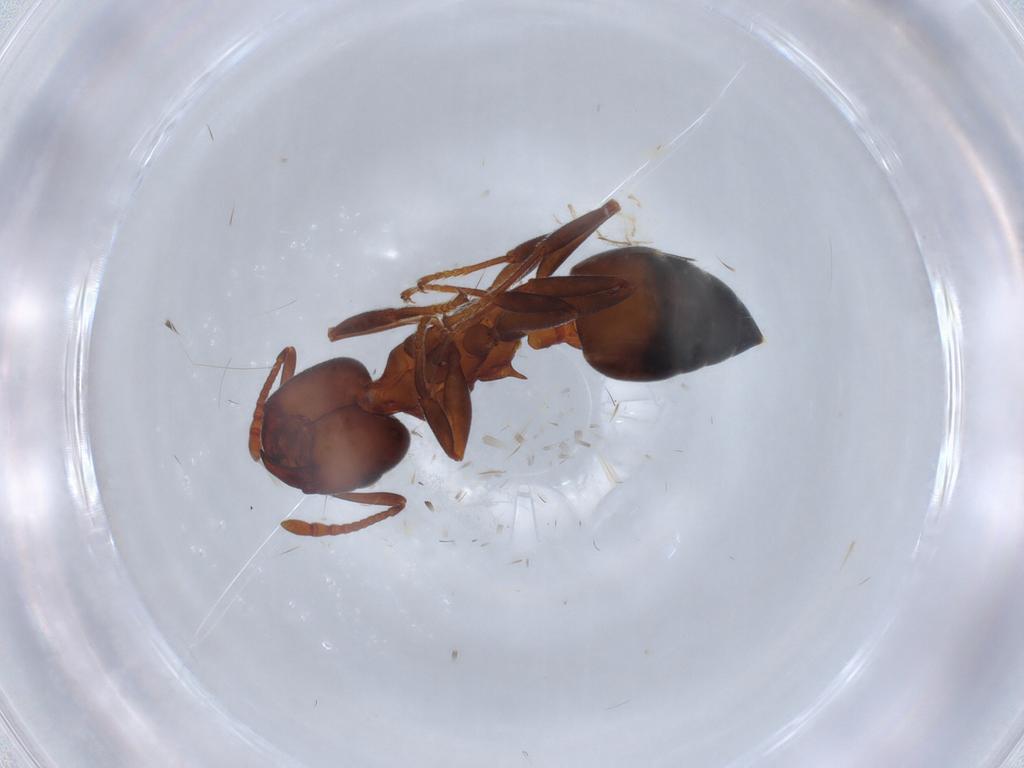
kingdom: Animalia
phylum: Arthropoda
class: Insecta
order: Hymenoptera
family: Formicidae
